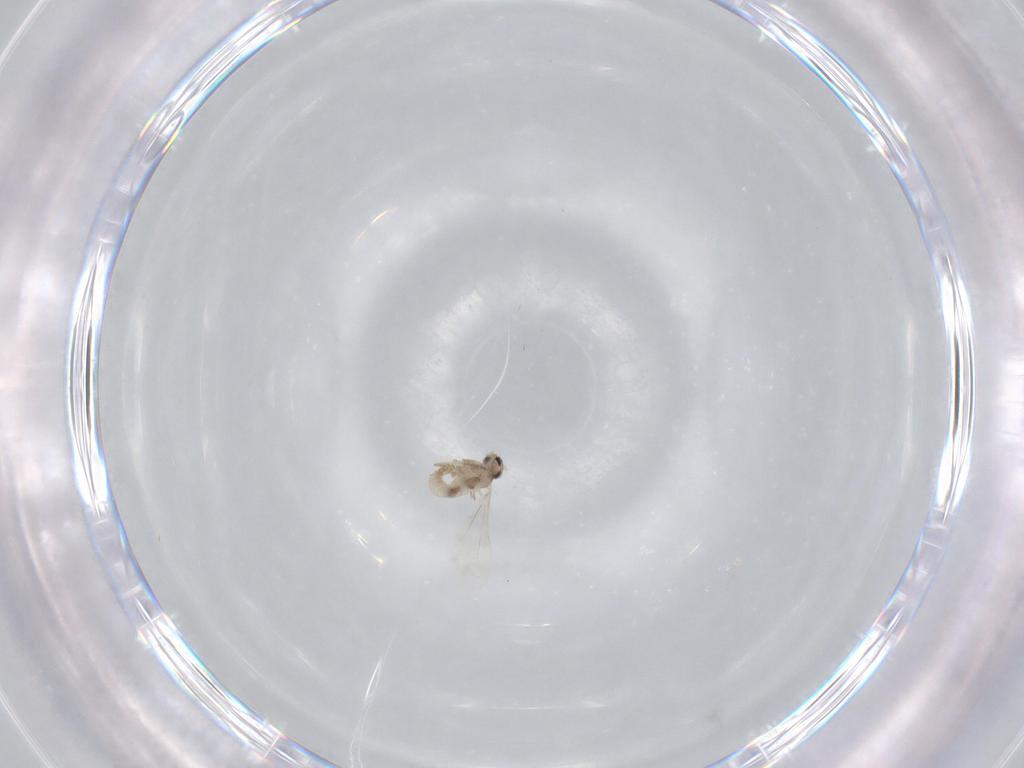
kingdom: Animalia
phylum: Arthropoda
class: Insecta
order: Diptera
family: Cecidomyiidae
